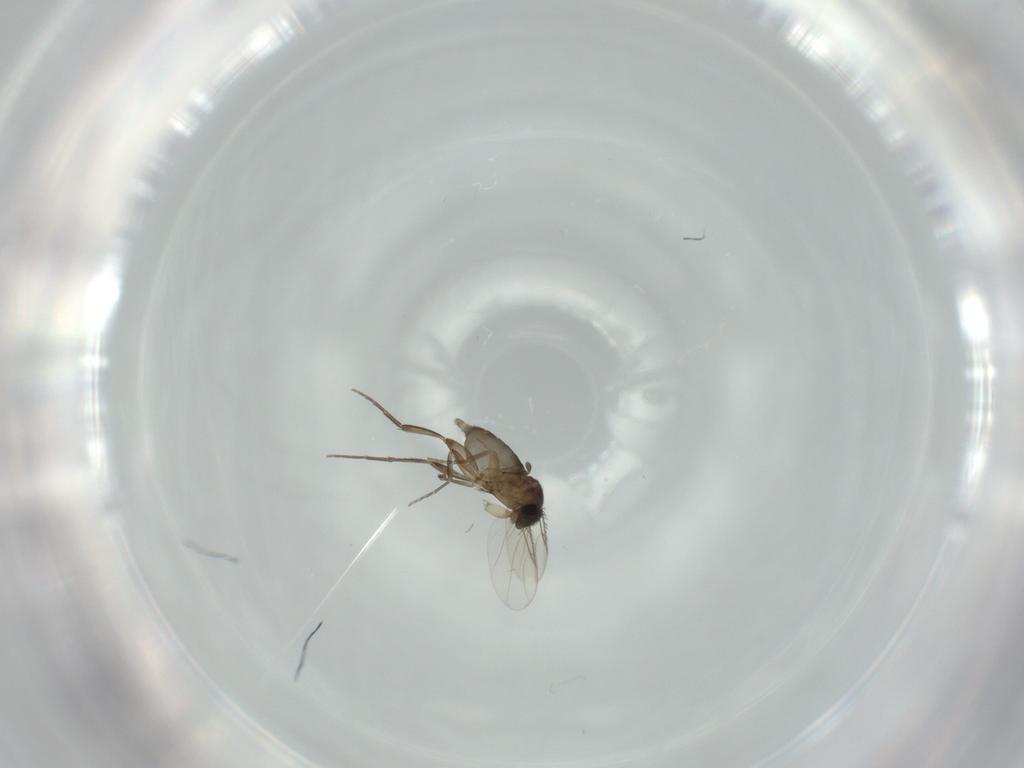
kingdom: Animalia
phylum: Arthropoda
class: Insecta
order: Diptera
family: Phoridae
